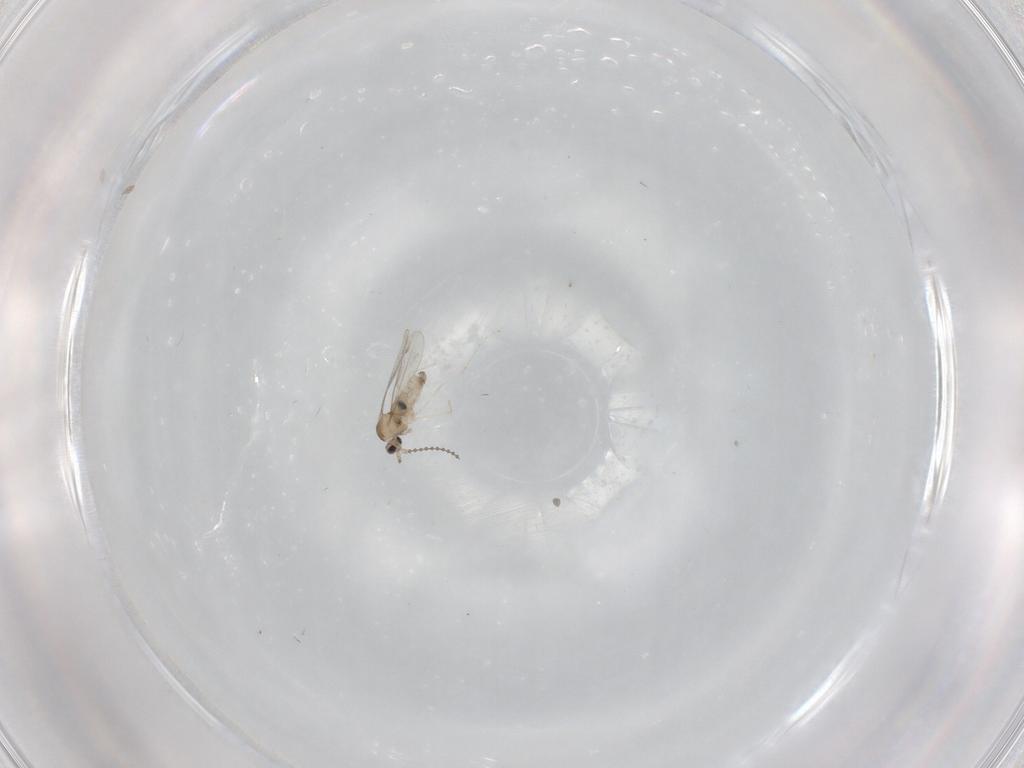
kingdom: Animalia
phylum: Arthropoda
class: Insecta
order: Diptera
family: Cecidomyiidae
